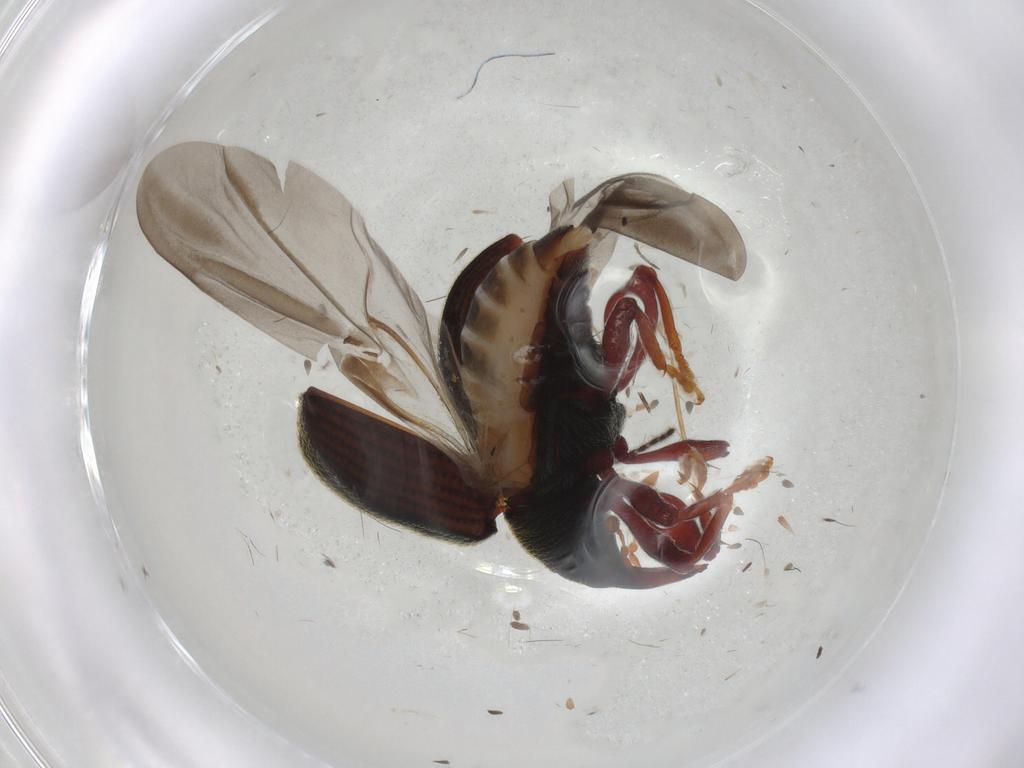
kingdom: Animalia
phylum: Arthropoda
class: Insecta
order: Coleoptera
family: Curculionidae
